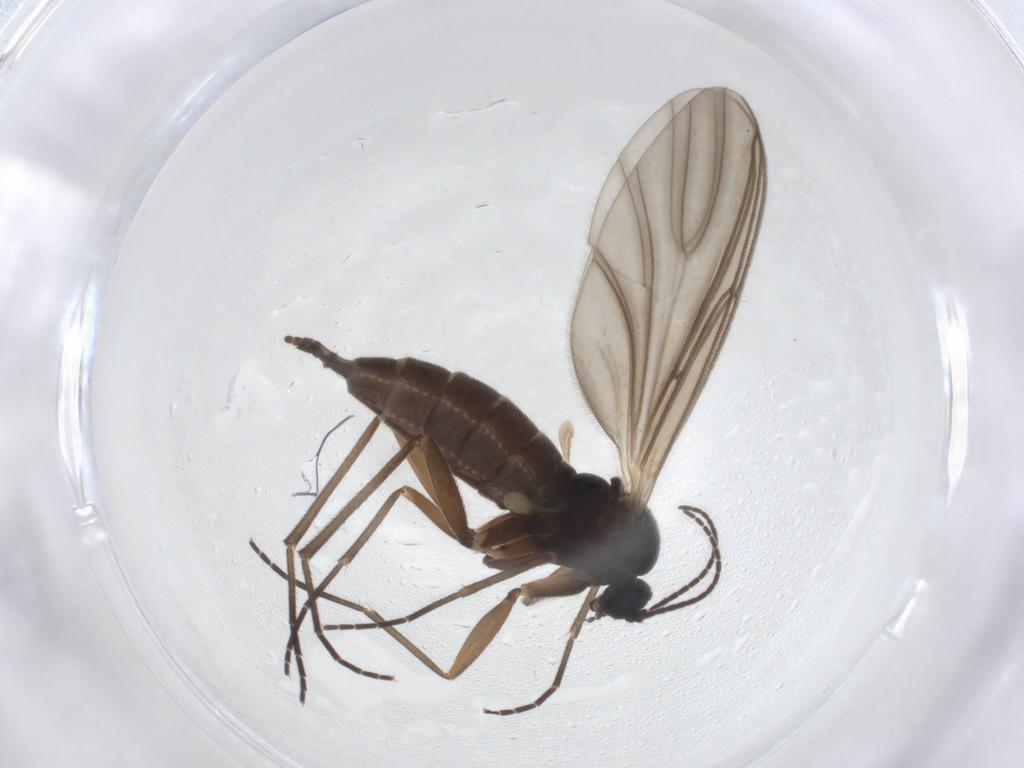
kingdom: Animalia
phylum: Arthropoda
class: Insecta
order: Diptera
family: Sciaridae
